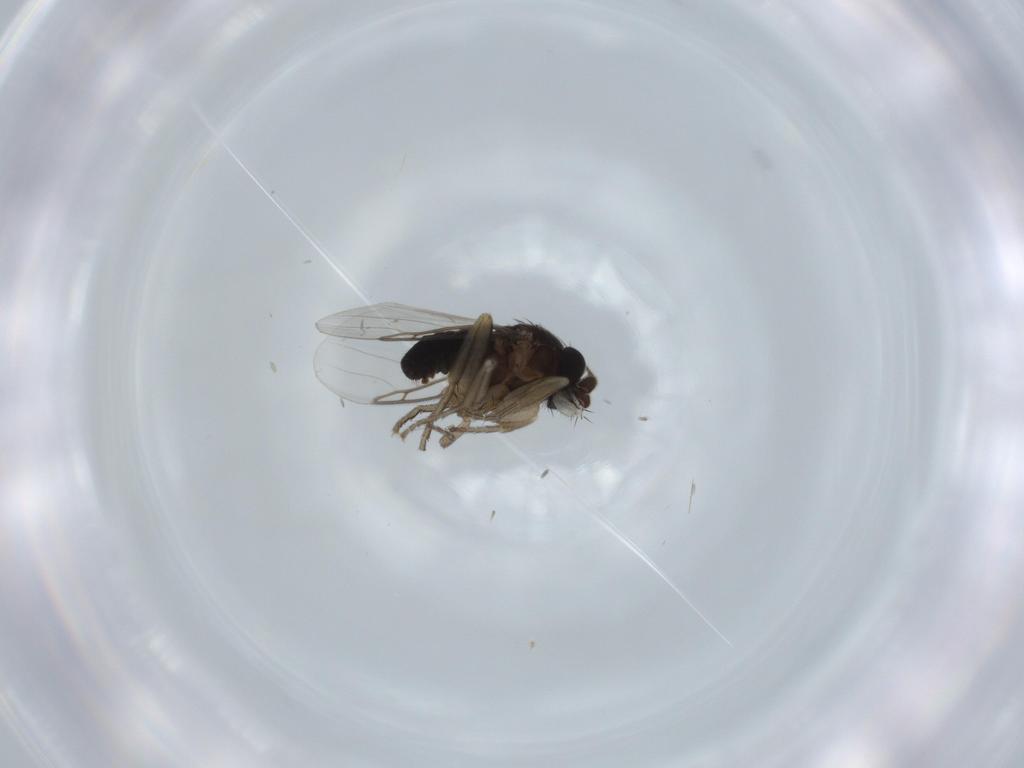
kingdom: Animalia
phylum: Arthropoda
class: Insecta
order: Diptera
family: Phoridae
